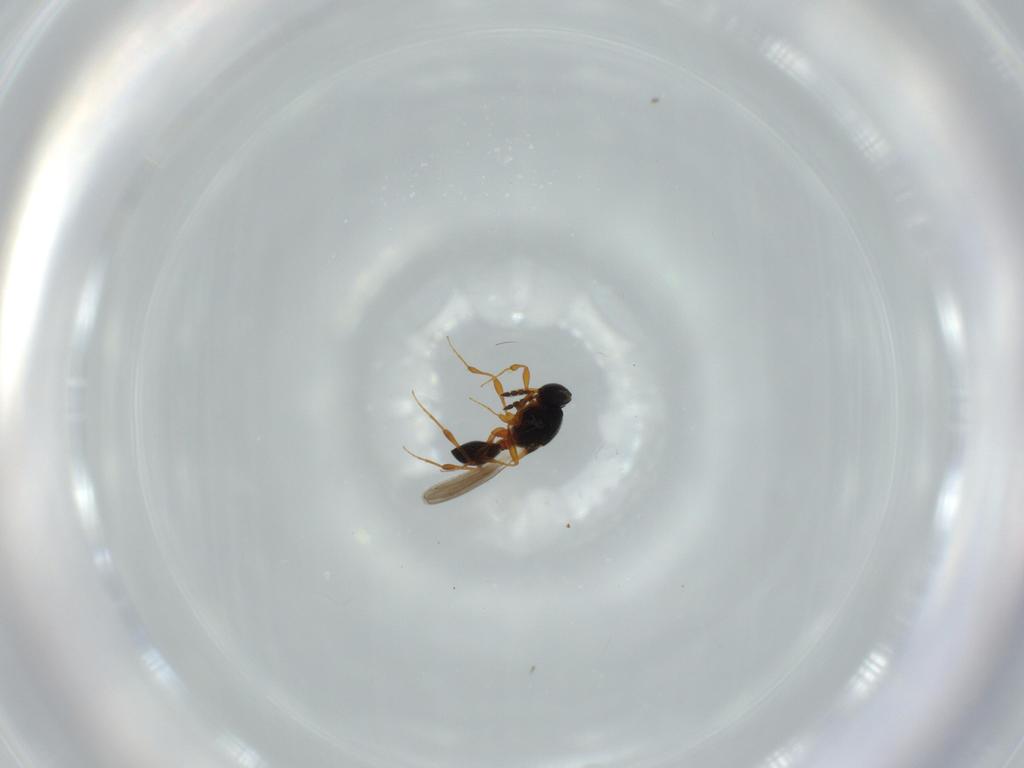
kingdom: Animalia
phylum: Arthropoda
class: Insecta
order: Hymenoptera
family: Platygastridae
